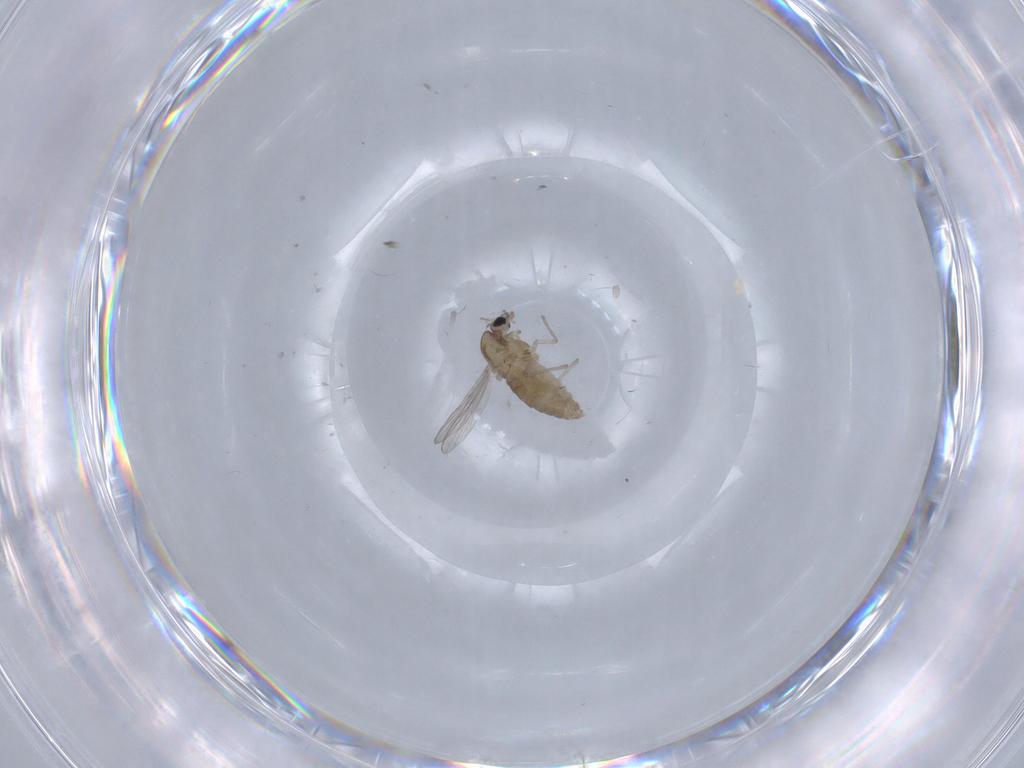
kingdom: Animalia
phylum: Arthropoda
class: Insecta
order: Diptera
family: Chironomidae
